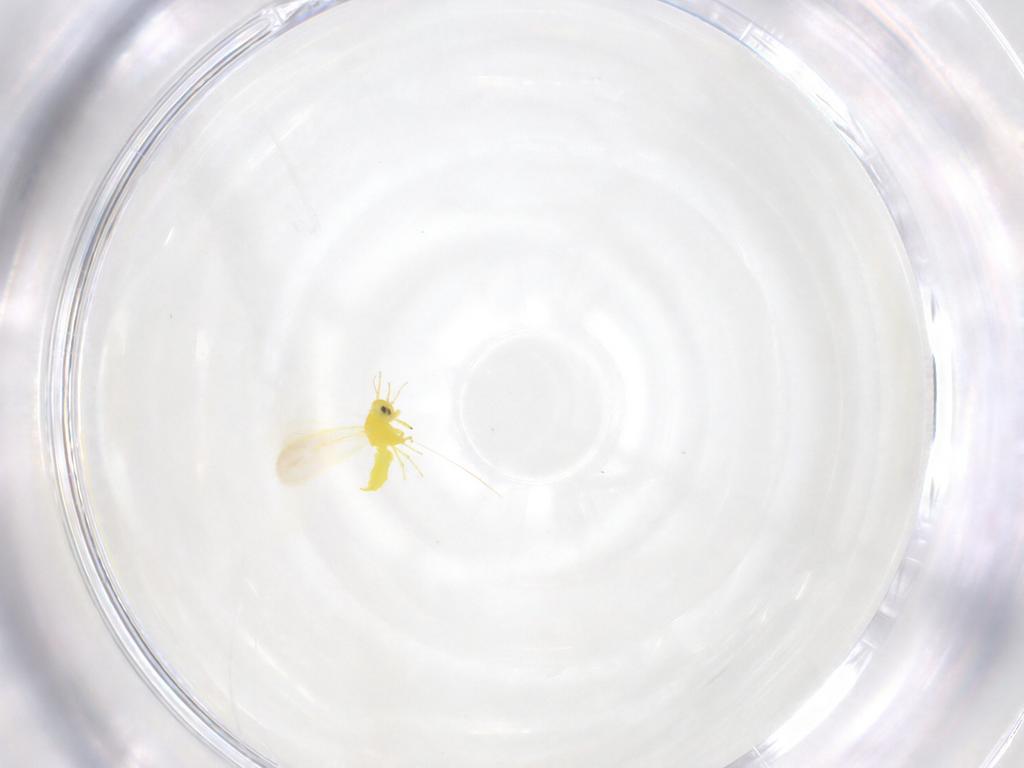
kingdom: Animalia
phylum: Arthropoda
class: Insecta
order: Hemiptera
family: Aleyrodidae
